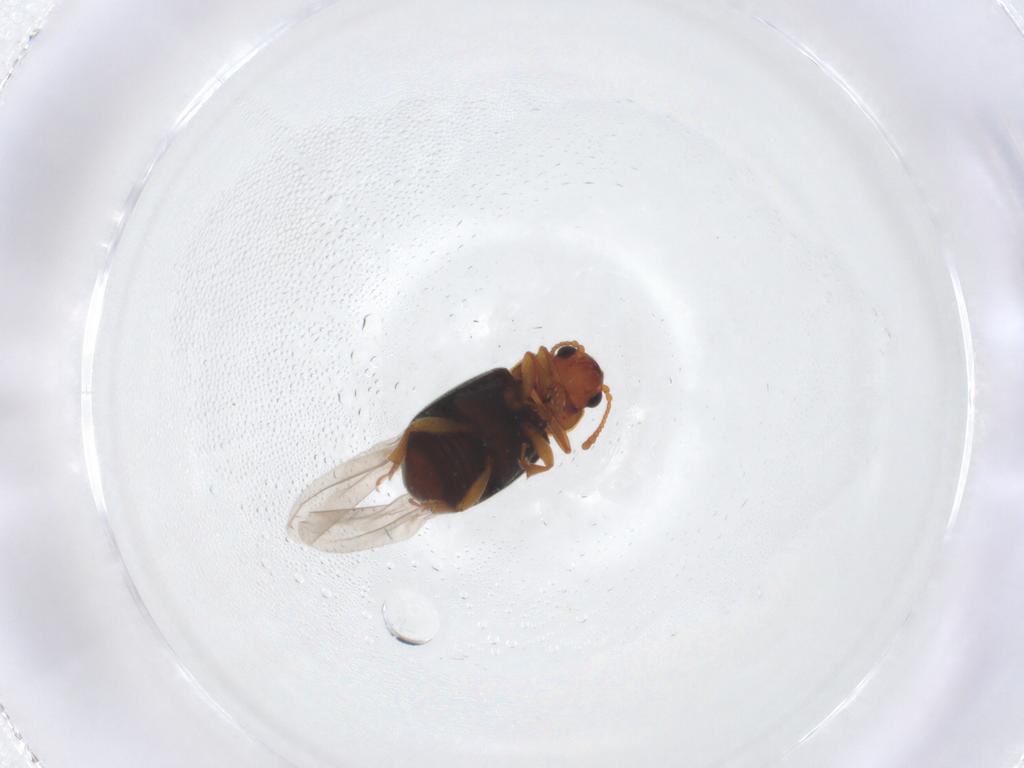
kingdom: Animalia
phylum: Arthropoda
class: Insecta
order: Coleoptera
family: Kateretidae
